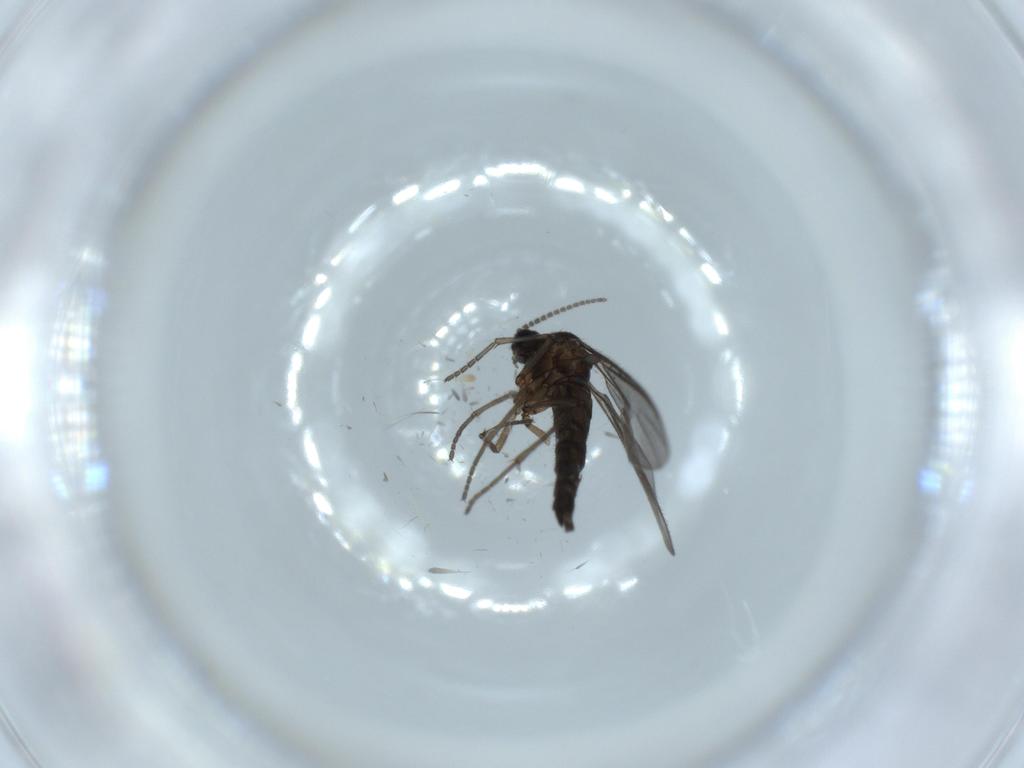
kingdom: Animalia
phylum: Arthropoda
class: Insecta
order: Diptera
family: Sciaridae
